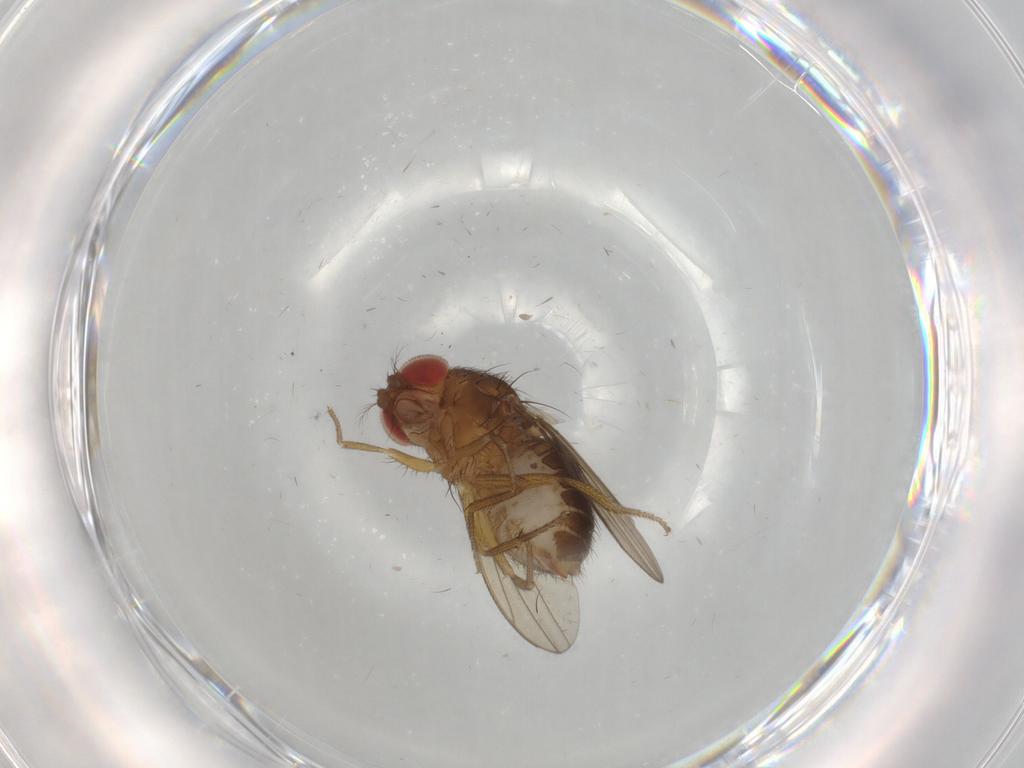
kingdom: Animalia
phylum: Arthropoda
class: Insecta
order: Diptera
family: Drosophilidae
